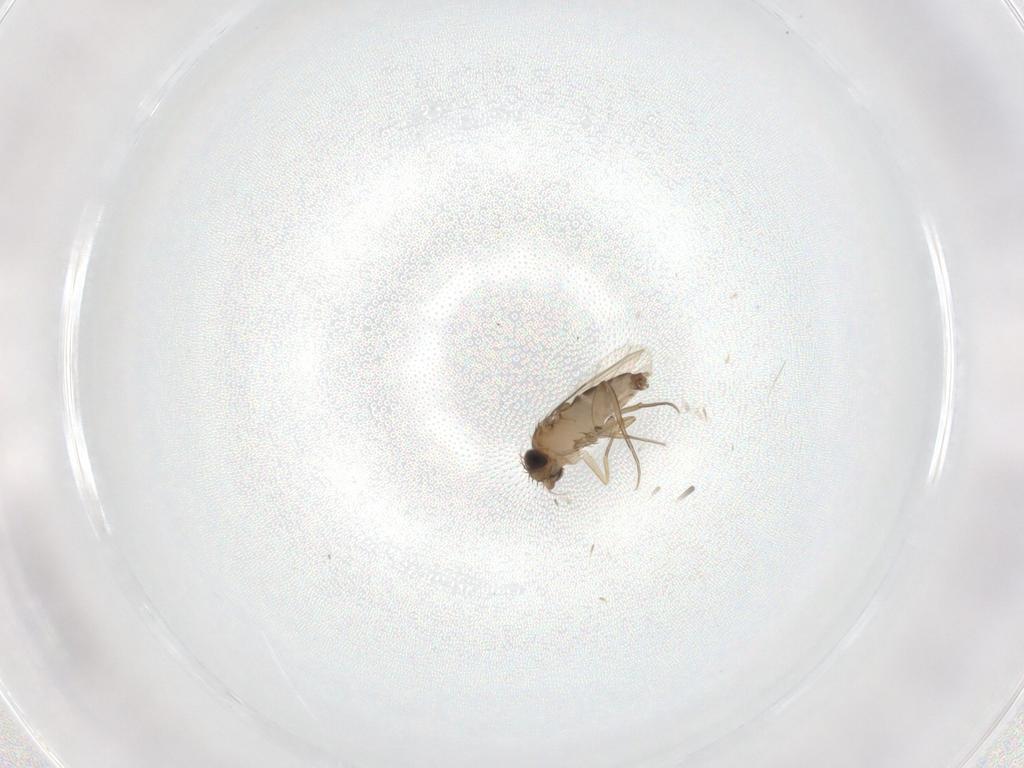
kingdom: Animalia
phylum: Arthropoda
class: Insecta
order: Diptera
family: Phoridae
